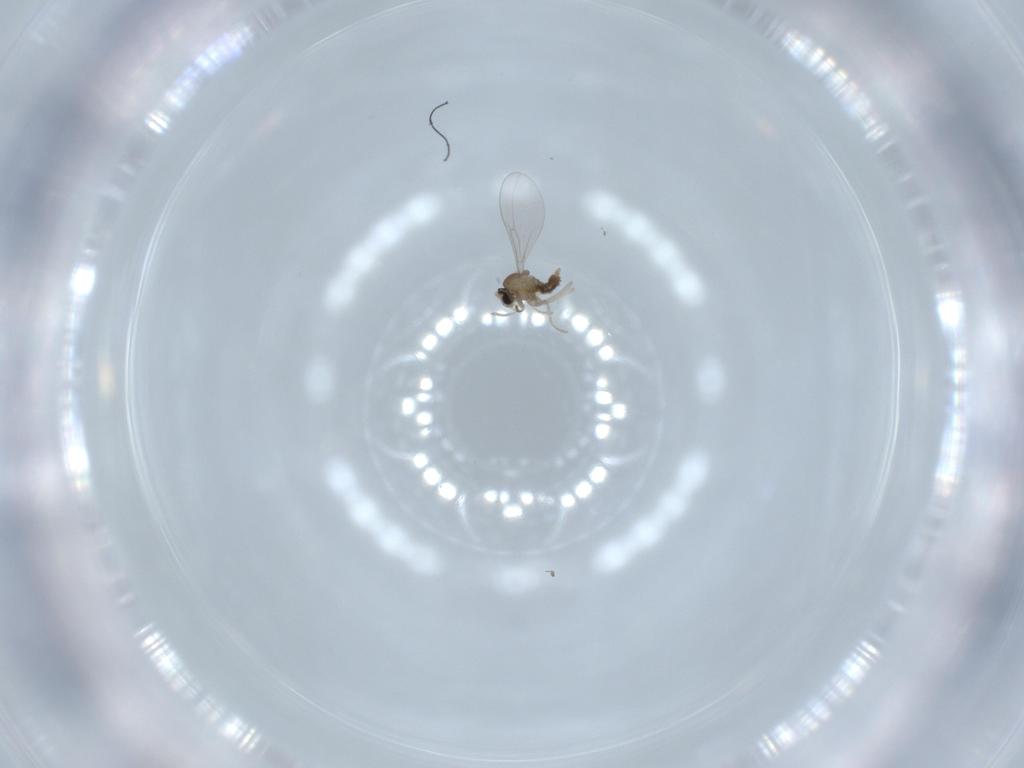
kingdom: Animalia
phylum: Arthropoda
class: Insecta
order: Diptera
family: Cecidomyiidae
